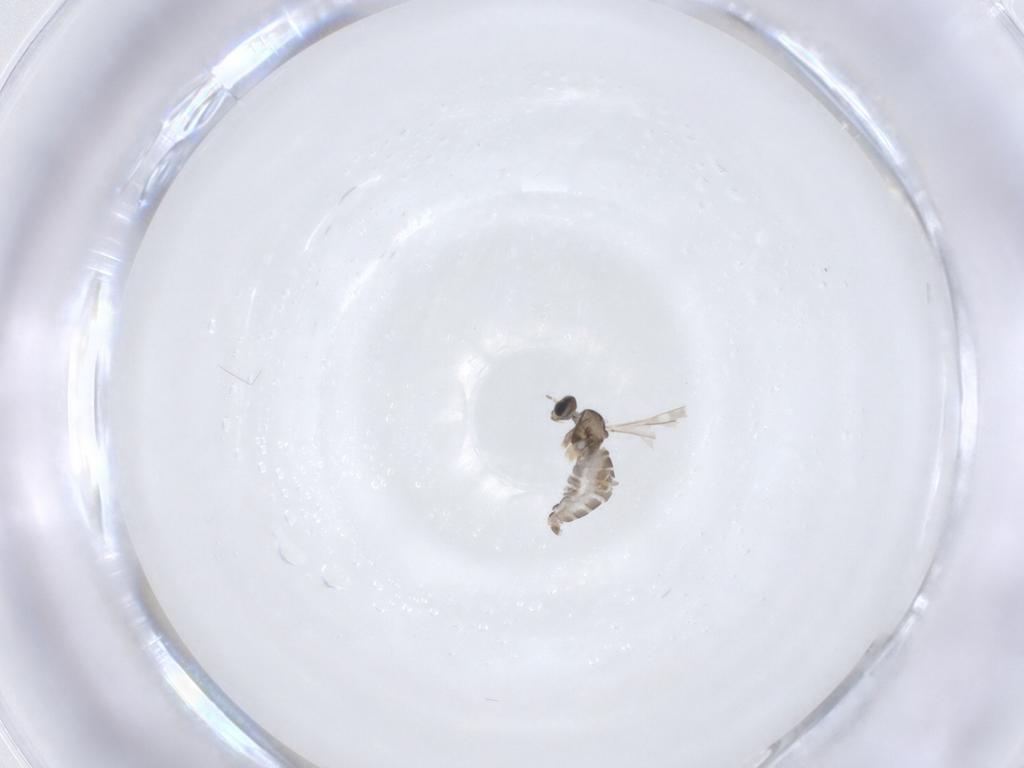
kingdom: Animalia
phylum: Arthropoda
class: Insecta
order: Diptera
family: Cecidomyiidae
